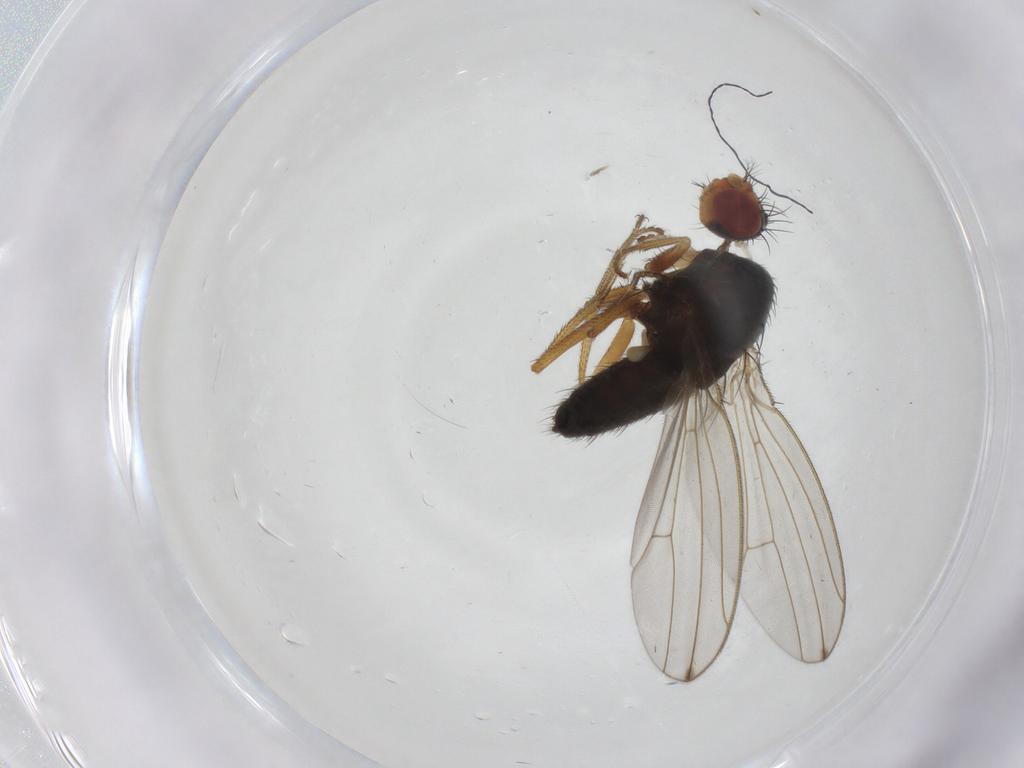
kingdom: Animalia
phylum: Arthropoda
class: Insecta
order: Diptera
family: Drosophilidae
